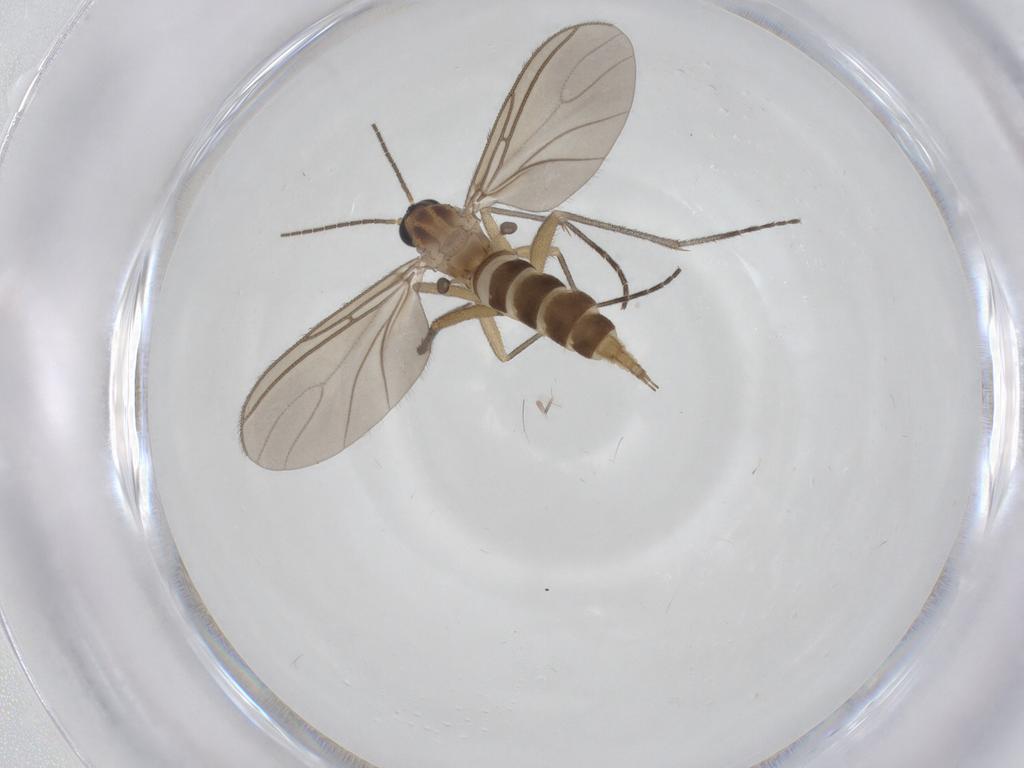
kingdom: Animalia
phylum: Arthropoda
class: Insecta
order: Diptera
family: Sciaridae
